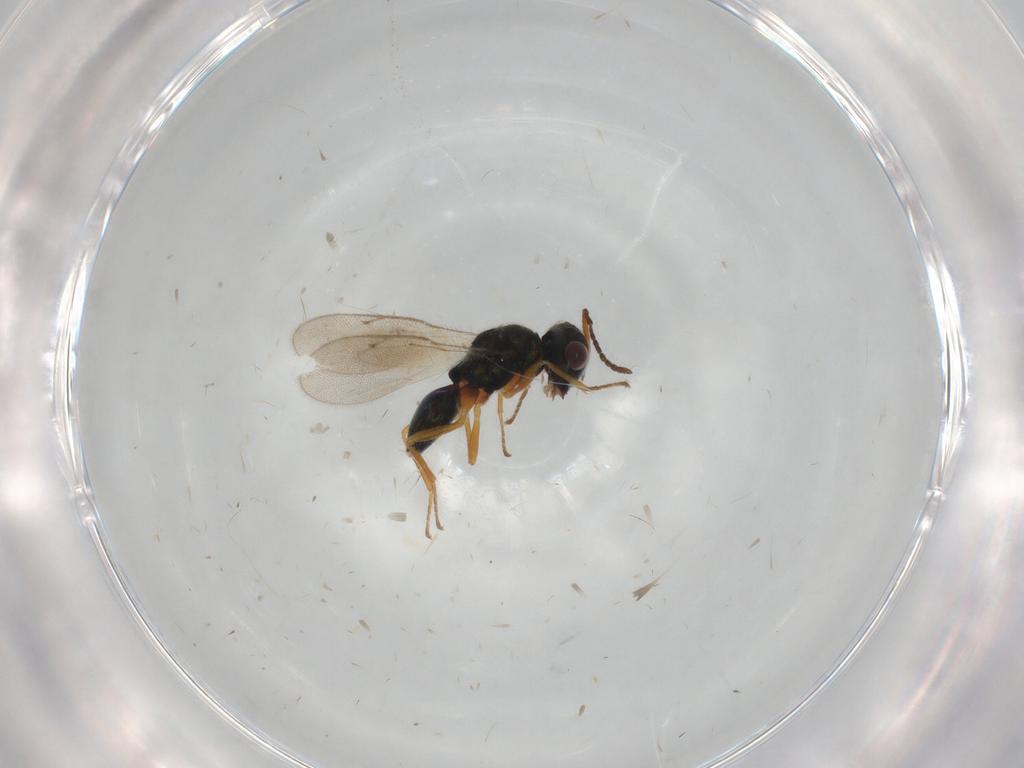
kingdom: Animalia
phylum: Arthropoda
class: Insecta
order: Hymenoptera
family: Pteromalidae
